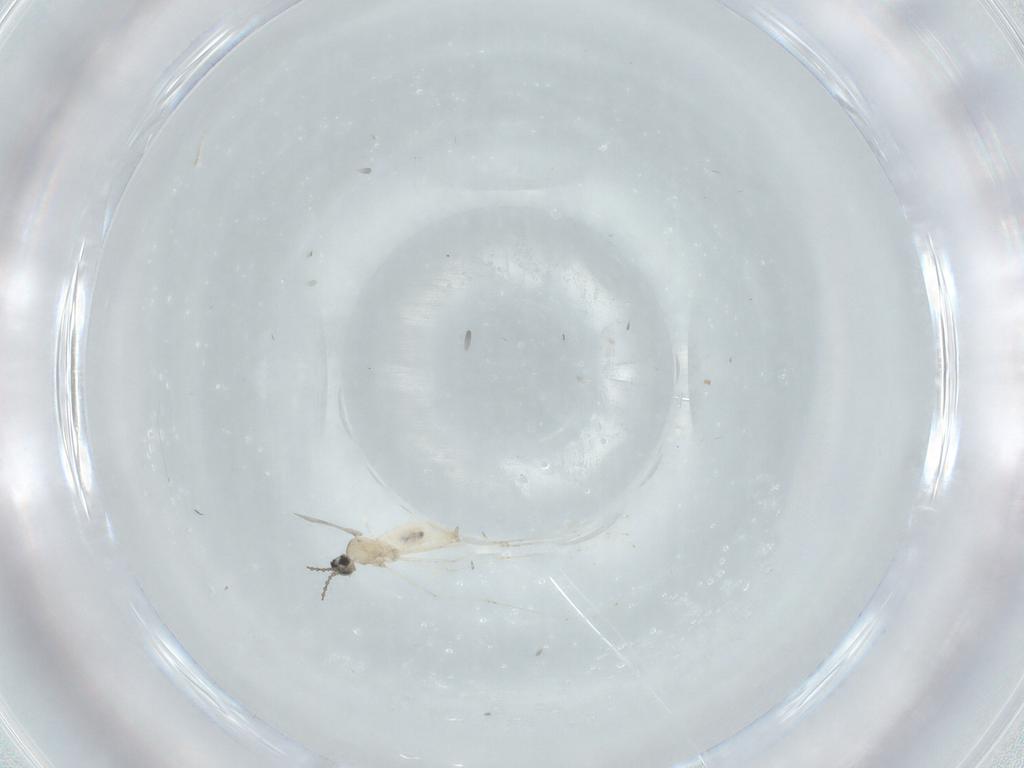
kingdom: Animalia
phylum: Arthropoda
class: Insecta
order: Diptera
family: Cecidomyiidae
